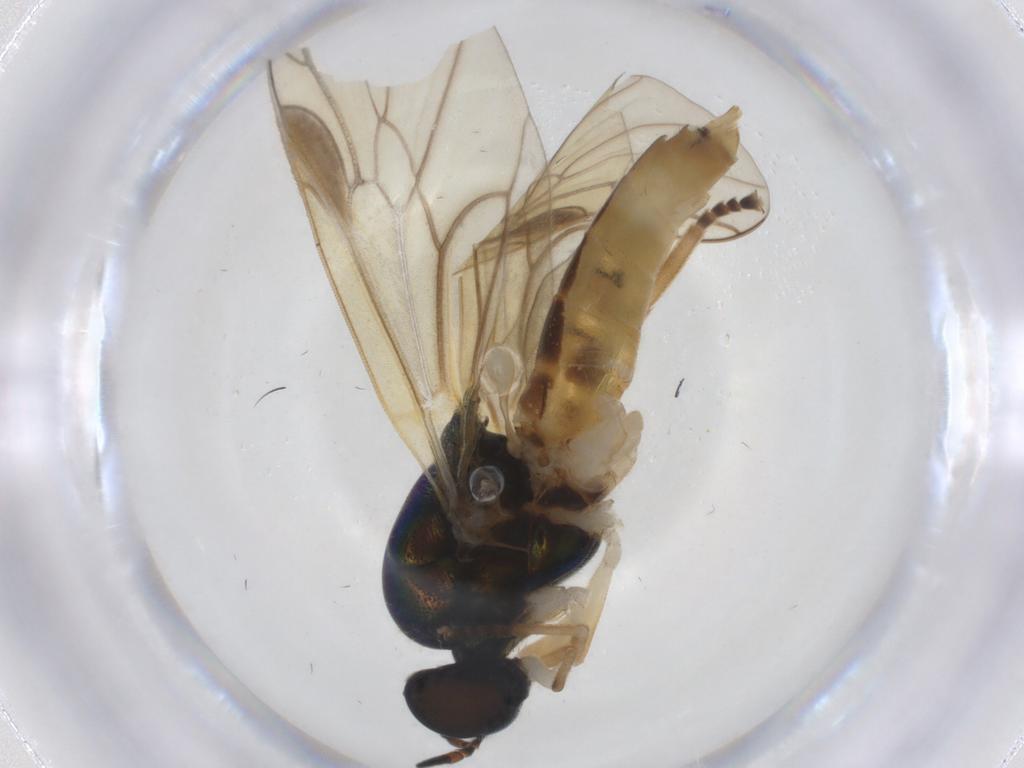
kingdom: Animalia
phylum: Arthropoda
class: Insecta
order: Diptera
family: Stratiomyidae
